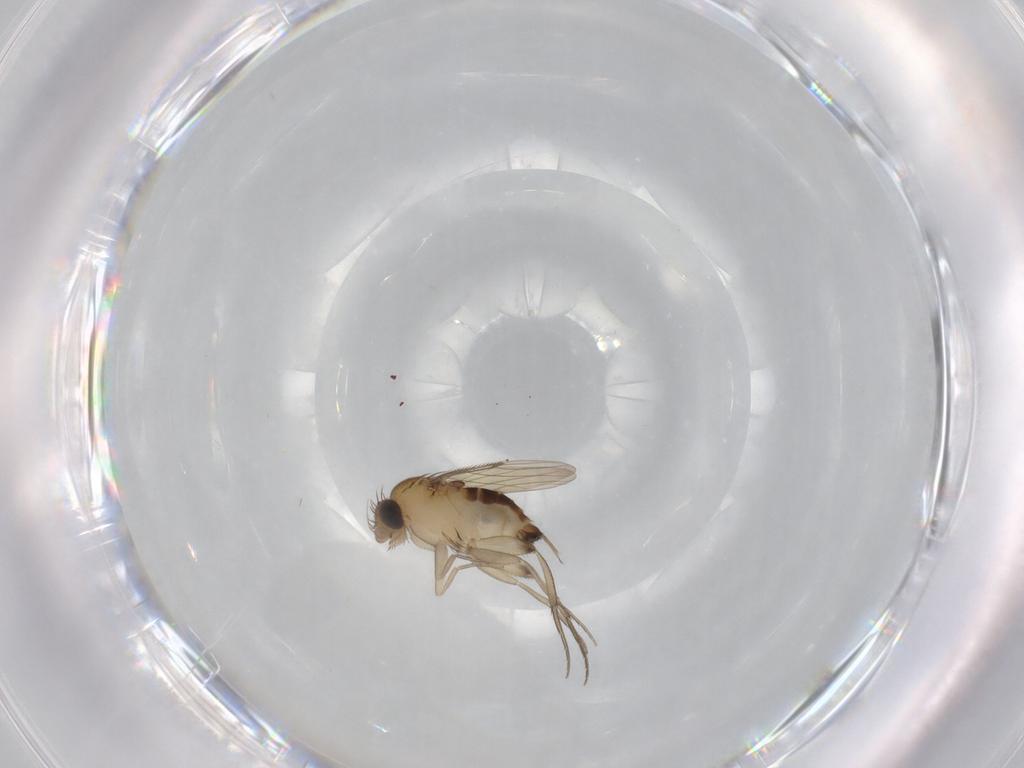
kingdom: Animalia
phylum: Arthropoda
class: Insecta
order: Diptera
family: Phoridae
